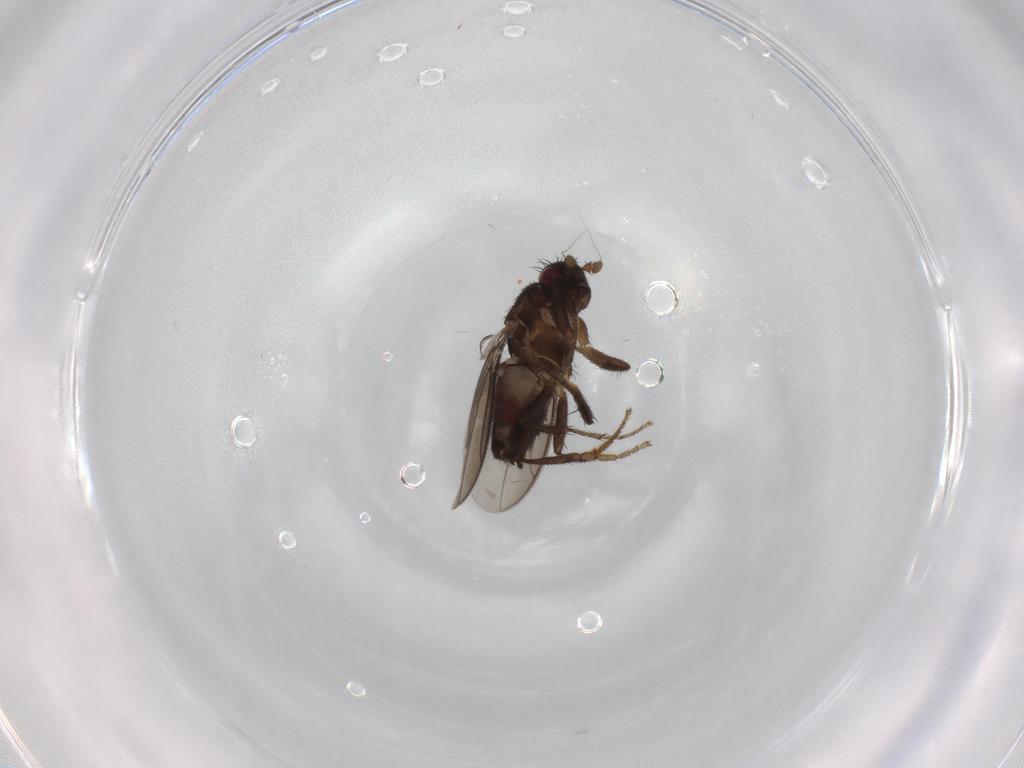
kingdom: Animalia
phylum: Arthropoda
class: Insecta
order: Diptera
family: Sphaeroceridae
